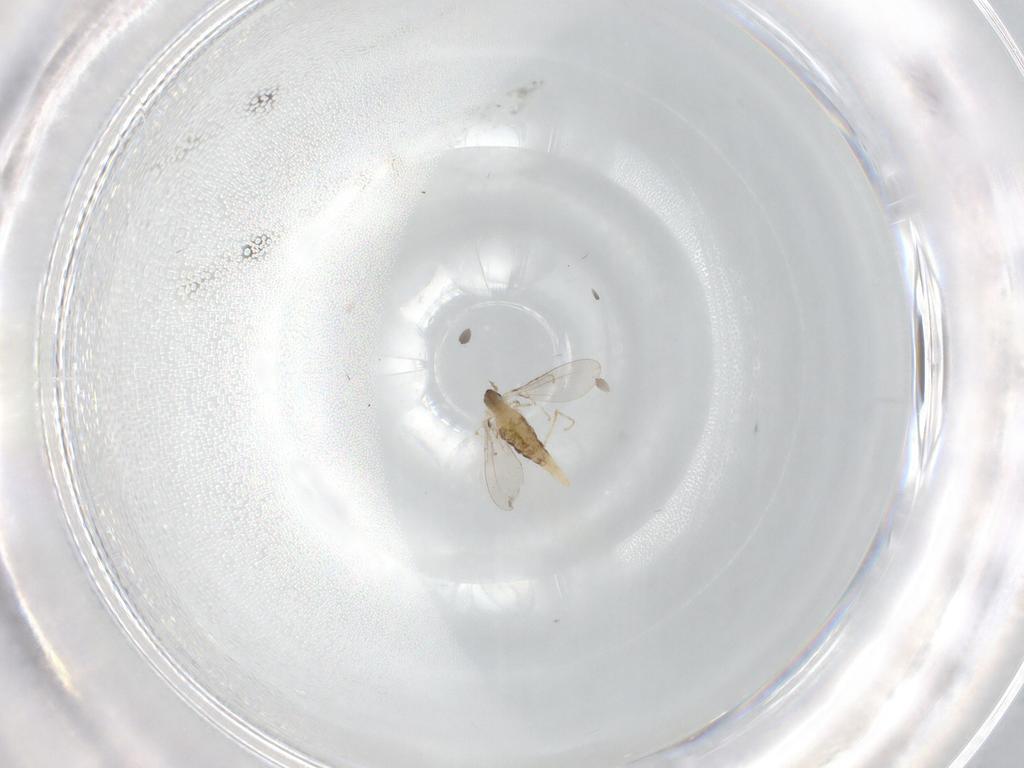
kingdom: Animalia
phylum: Arthropoda
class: Insecta
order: Diptera
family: Cecidomyiidae
